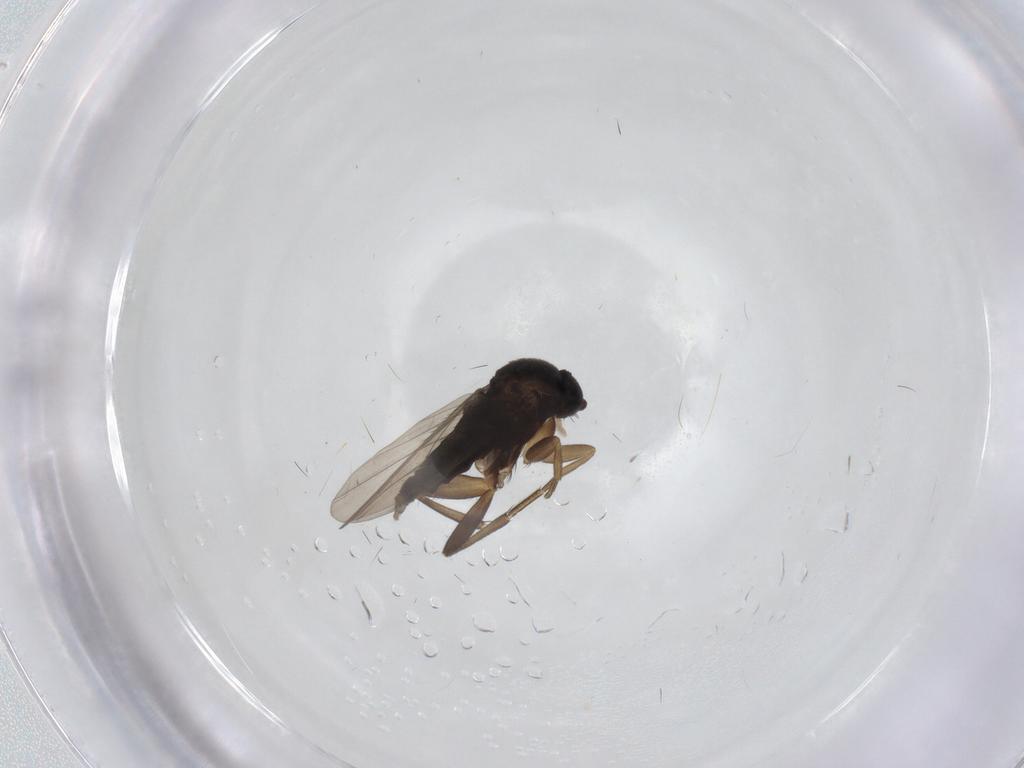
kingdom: Animalia
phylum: Arthropoda
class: Insecta
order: Diptera
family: Phoridae
